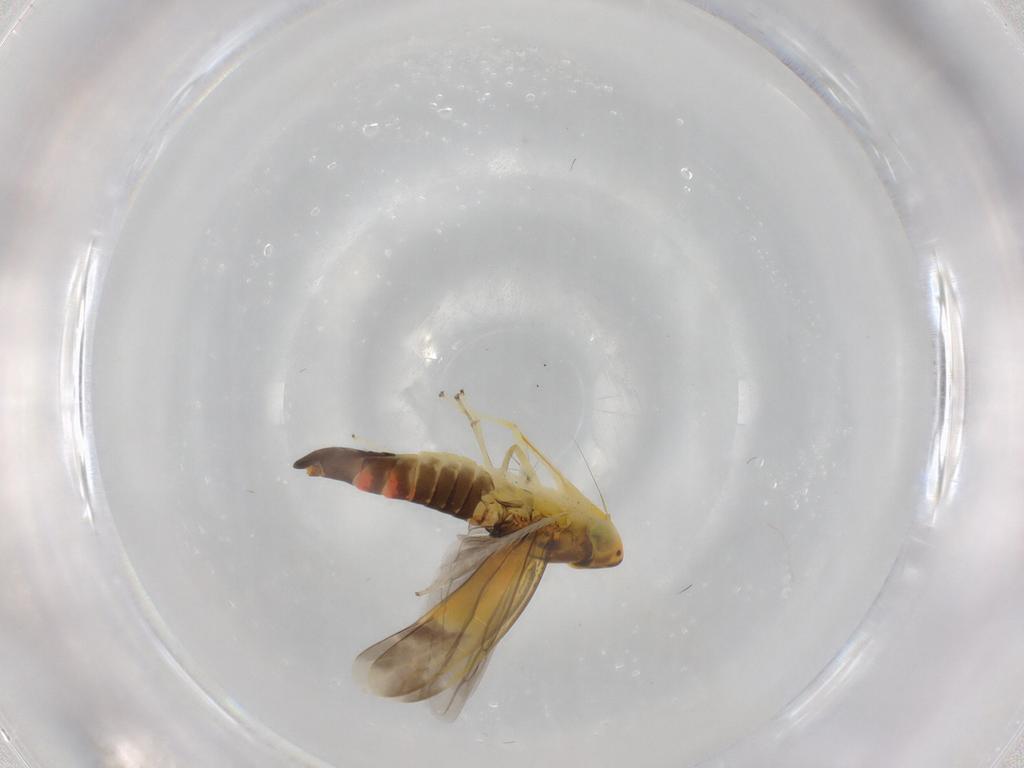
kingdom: Animalia
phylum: Arthropoda
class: Insecta
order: Hemiptera
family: Cicadellidae
